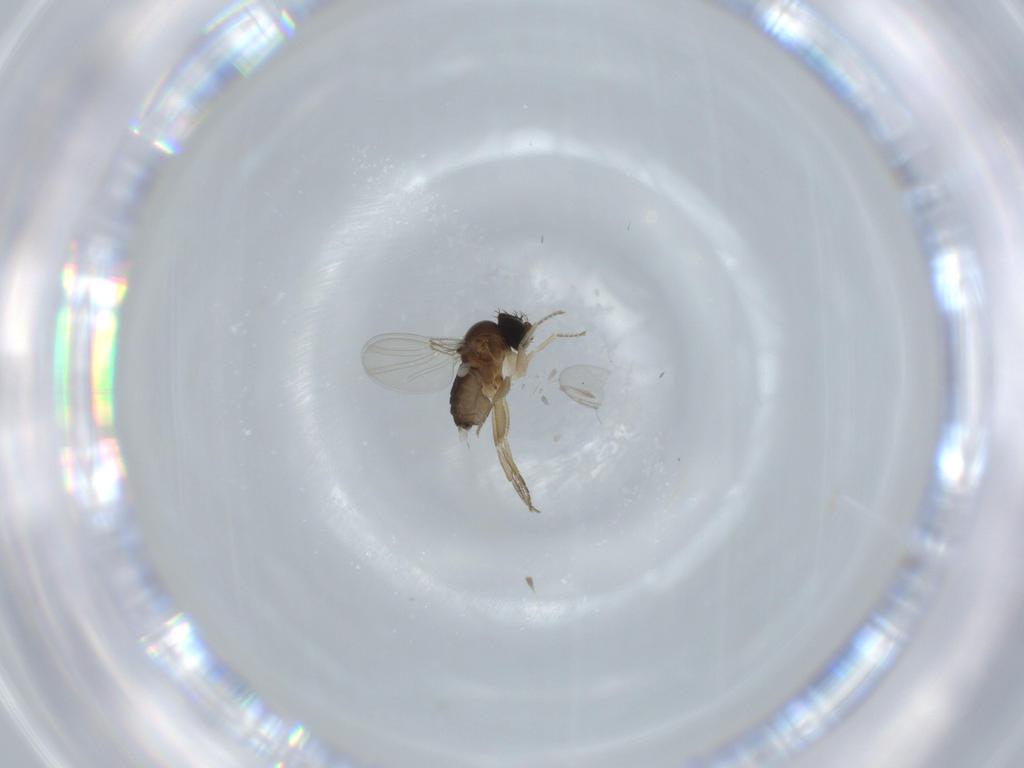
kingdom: Animalia
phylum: Arthropoda
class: Insecta
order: Diptera
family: Chironomidae
